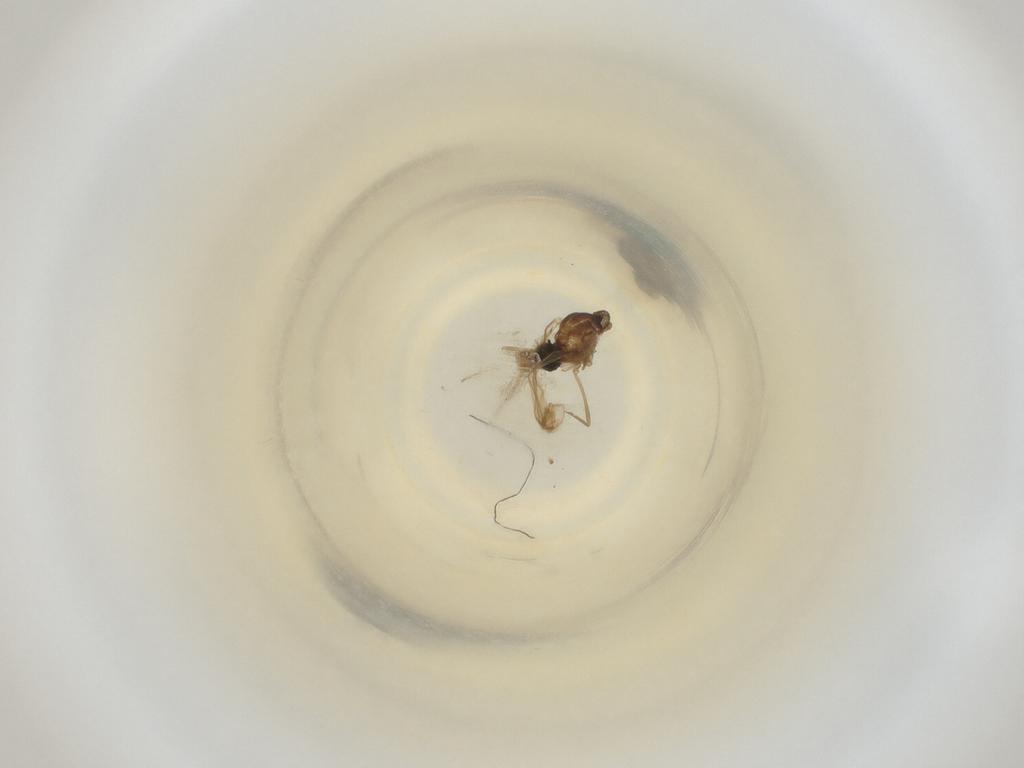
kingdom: Animalia
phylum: Arthropoda
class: Insecta
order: Diptera
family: Cecidomyiidae
